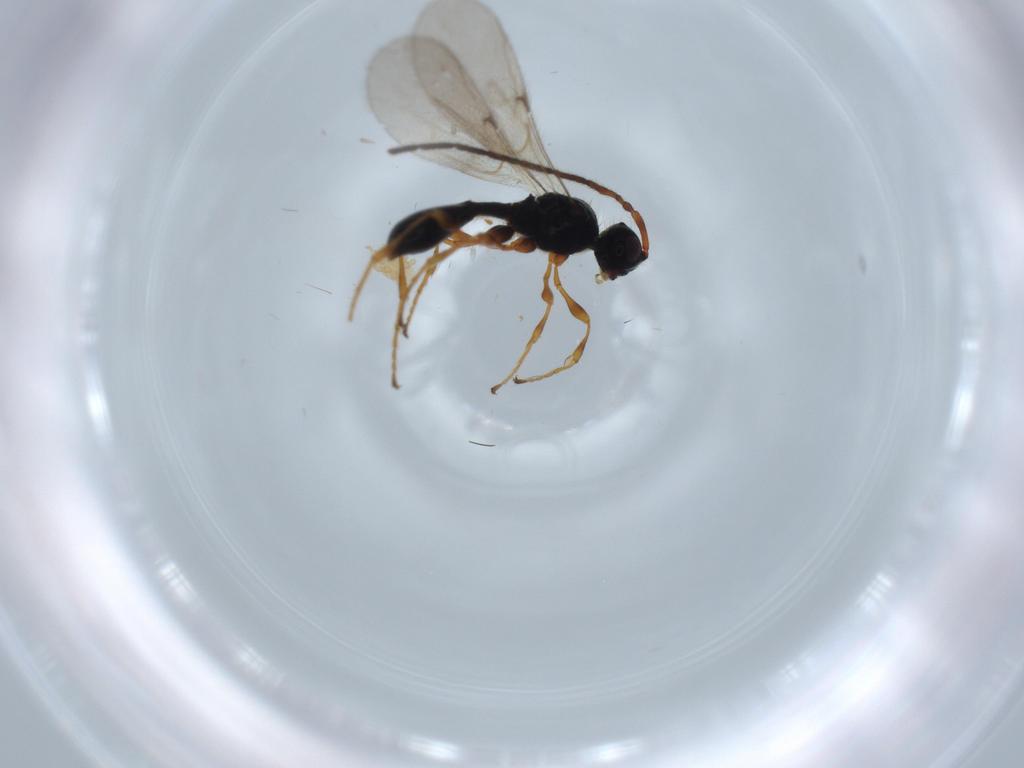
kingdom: Animalia
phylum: Arthropoda
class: Insecta
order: Hymenoptera
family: Diapriidae
